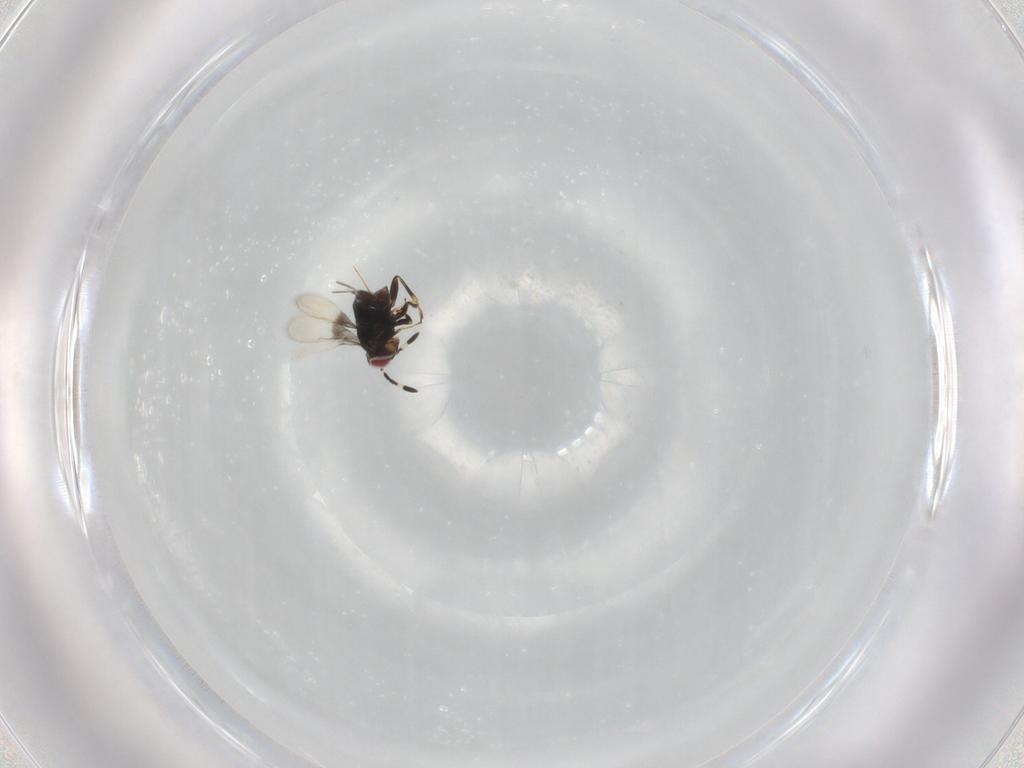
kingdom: Animalia
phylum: Arthropoda
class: Insecta
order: Hymenoptera
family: Azotidae
